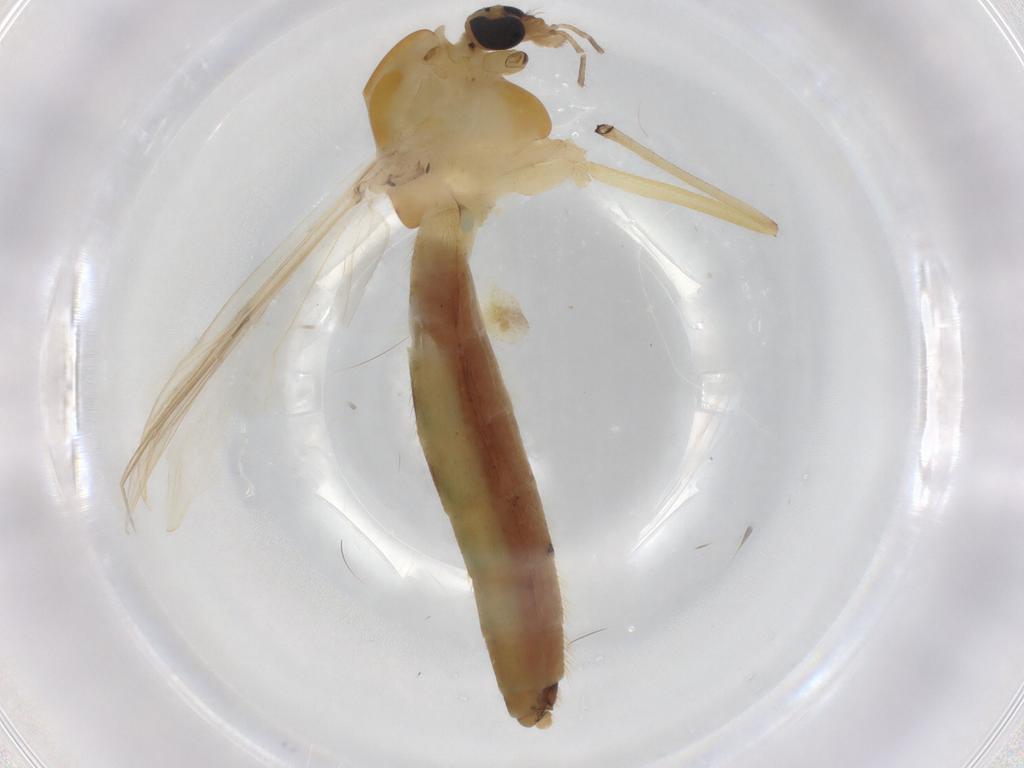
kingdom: Animalia
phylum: Arthropoda
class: Insecta
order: Diptera
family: Chironomidae
